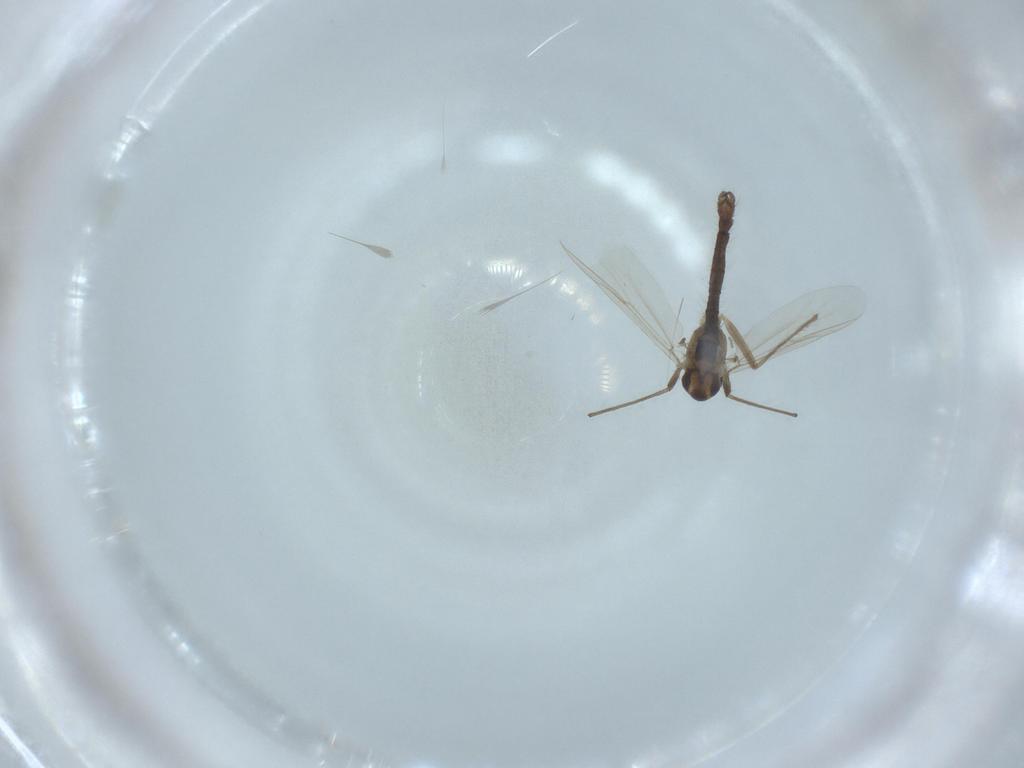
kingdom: Animalia
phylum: Arthropoda
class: Insecta
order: Diptera
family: Chironomidae
